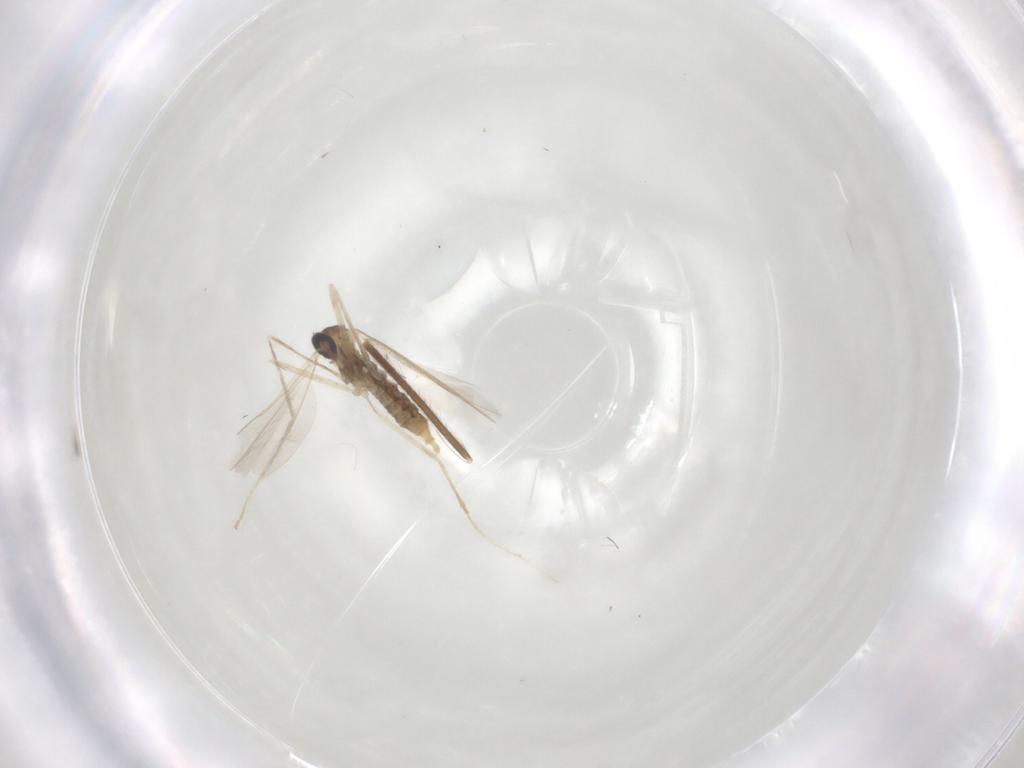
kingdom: Animalia
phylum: Arthropoda
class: Insecta
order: Diptera
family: Cecidomyiidae
